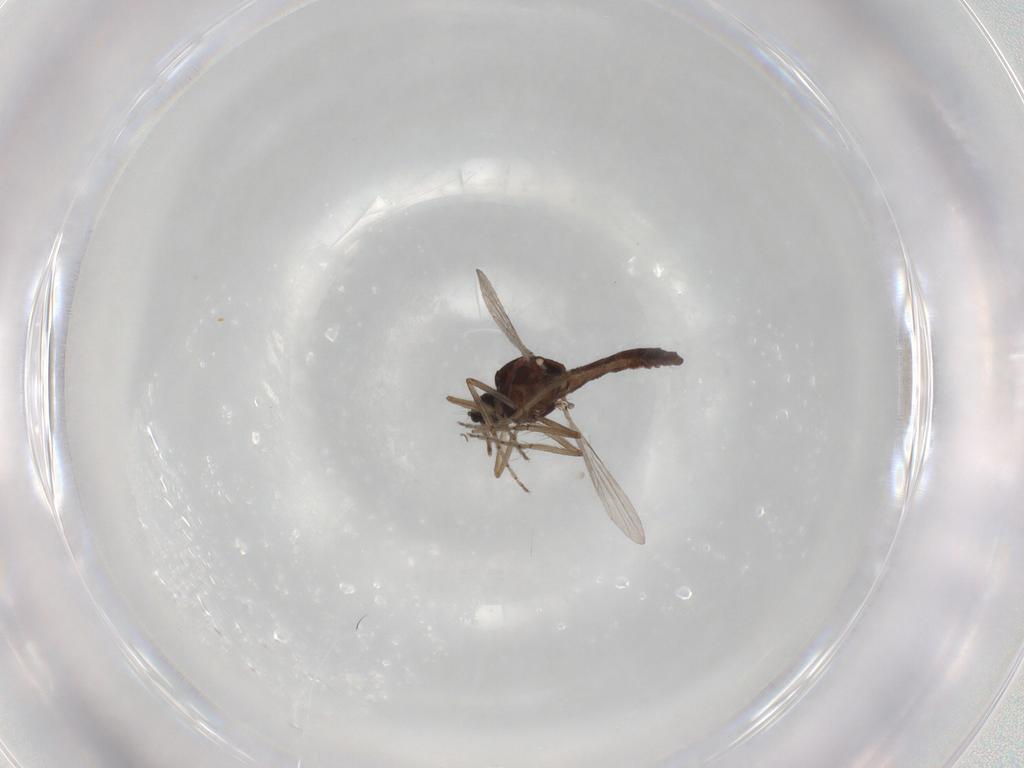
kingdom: Animalia
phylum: Arthropoda
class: Insecta
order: Diptera
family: Ceratopogonidae
